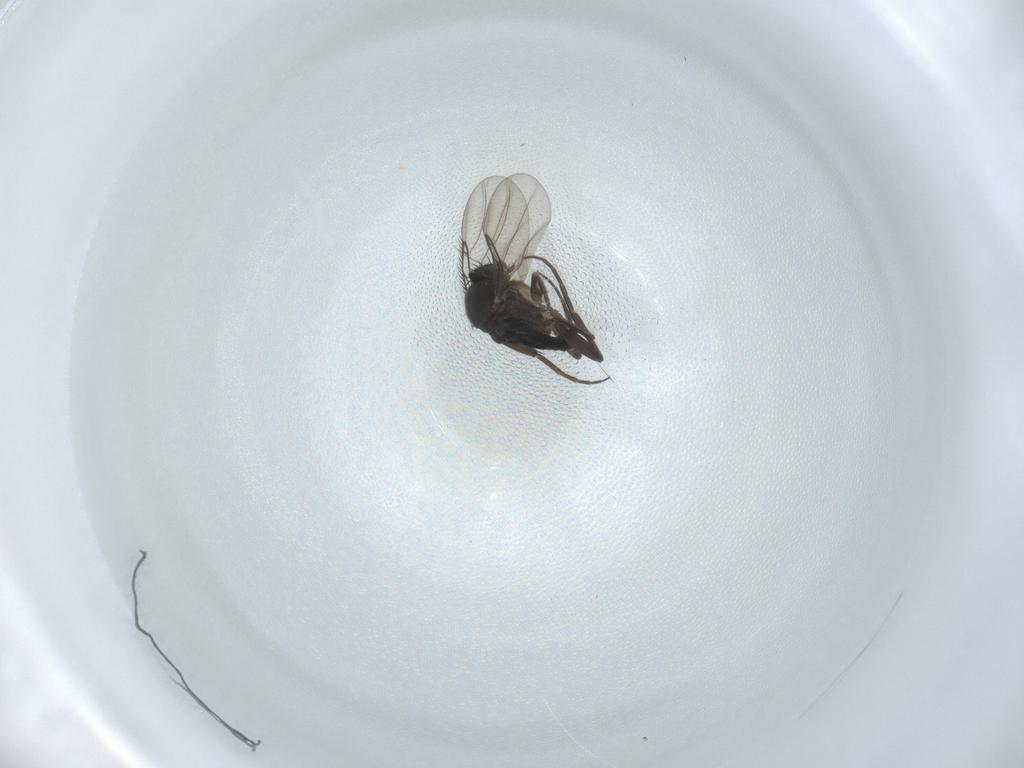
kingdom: Animalia
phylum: Arthropoda
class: Insecta
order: Diptera
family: Phoridae
